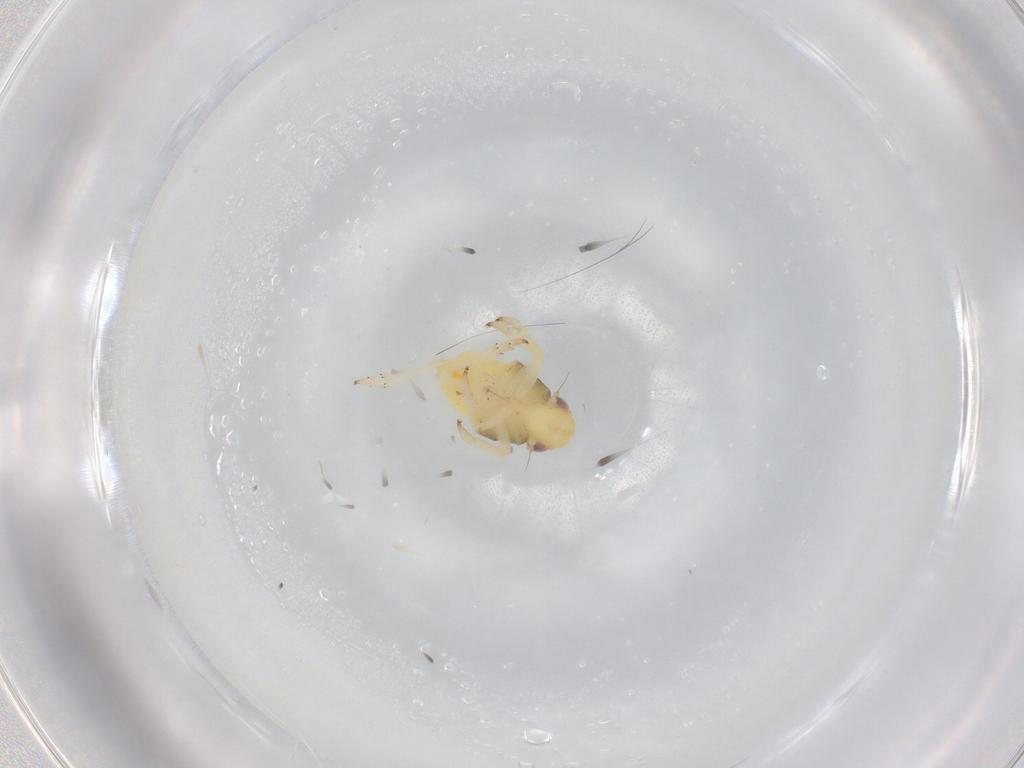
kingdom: Animalia
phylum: Arthropoda
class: Insecta
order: Hemiptera
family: Caliscelidae
